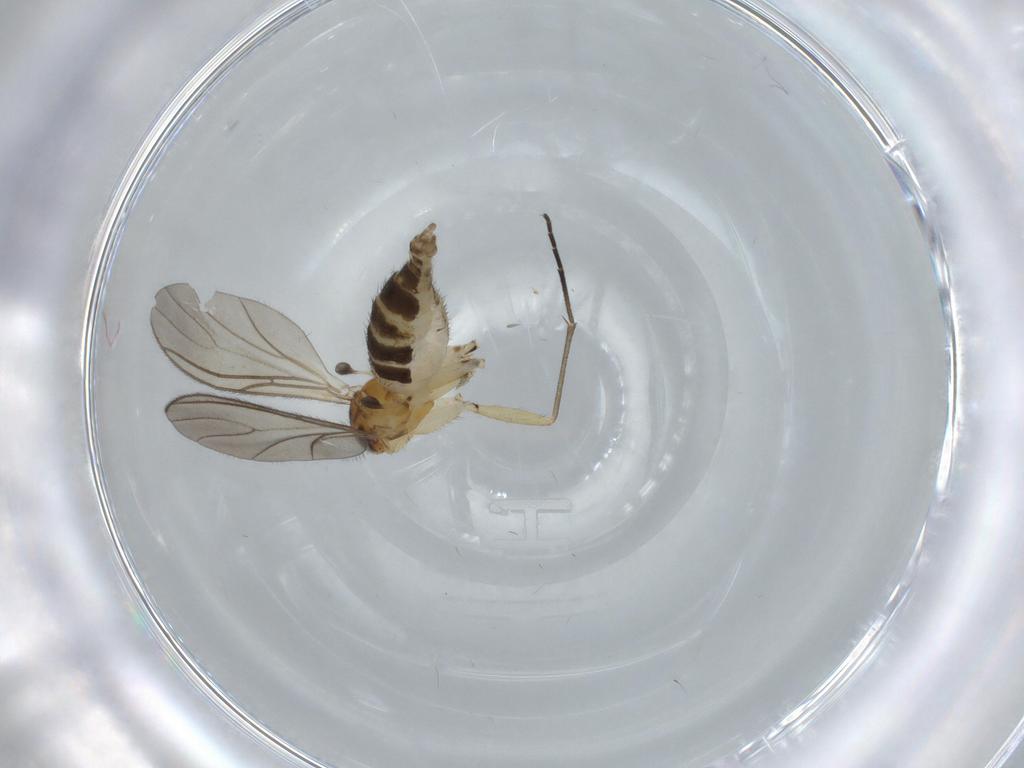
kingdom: Animalia
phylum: Arthropoda
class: Insecta
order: Diptera
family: Sciaridae
